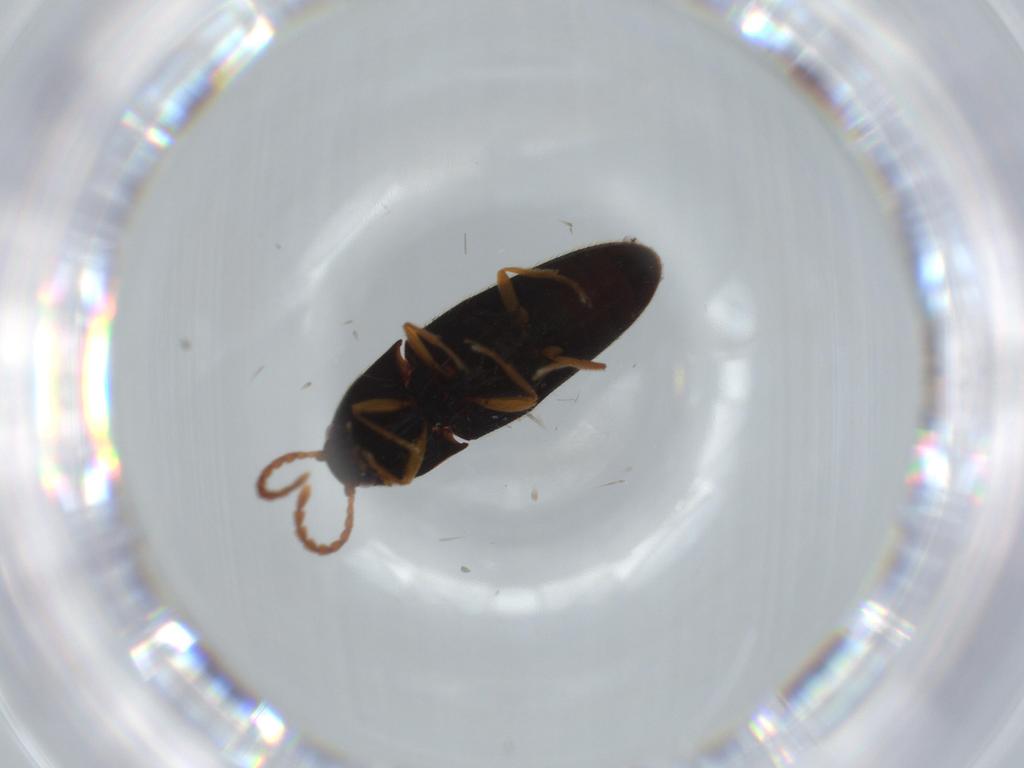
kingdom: Animalia
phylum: Arthropoda
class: Insecta
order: Coleoptera
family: Elateridae
